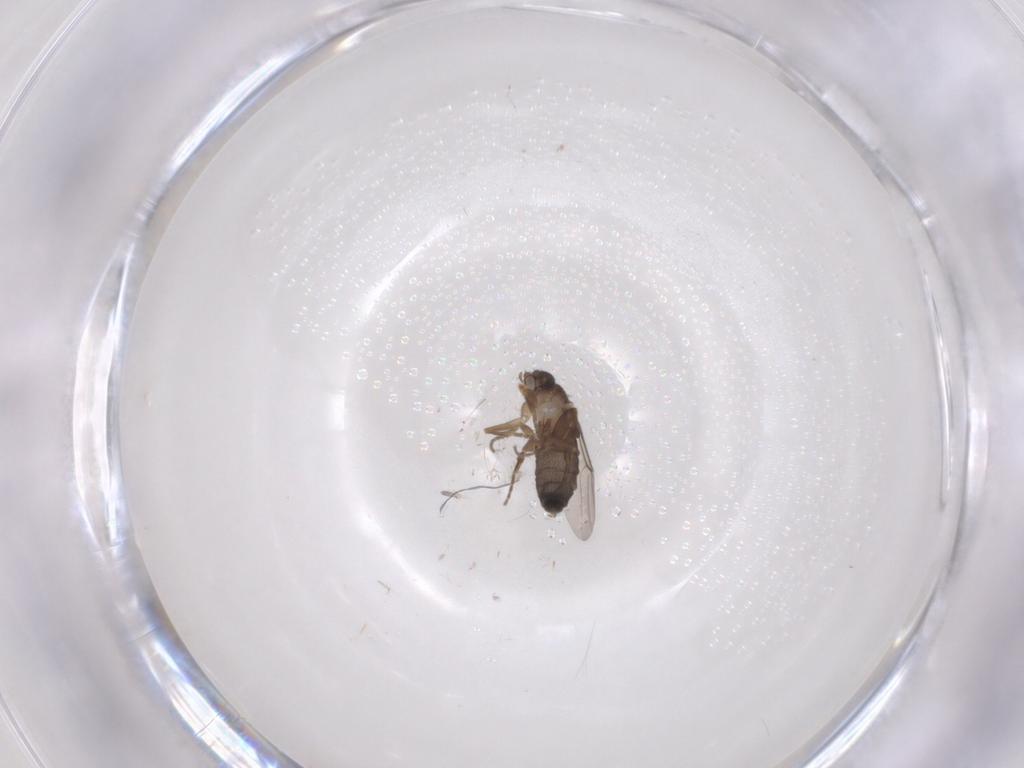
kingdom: Animalia
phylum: Arthropoda
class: Insecta
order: Diptera
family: Phoridae
